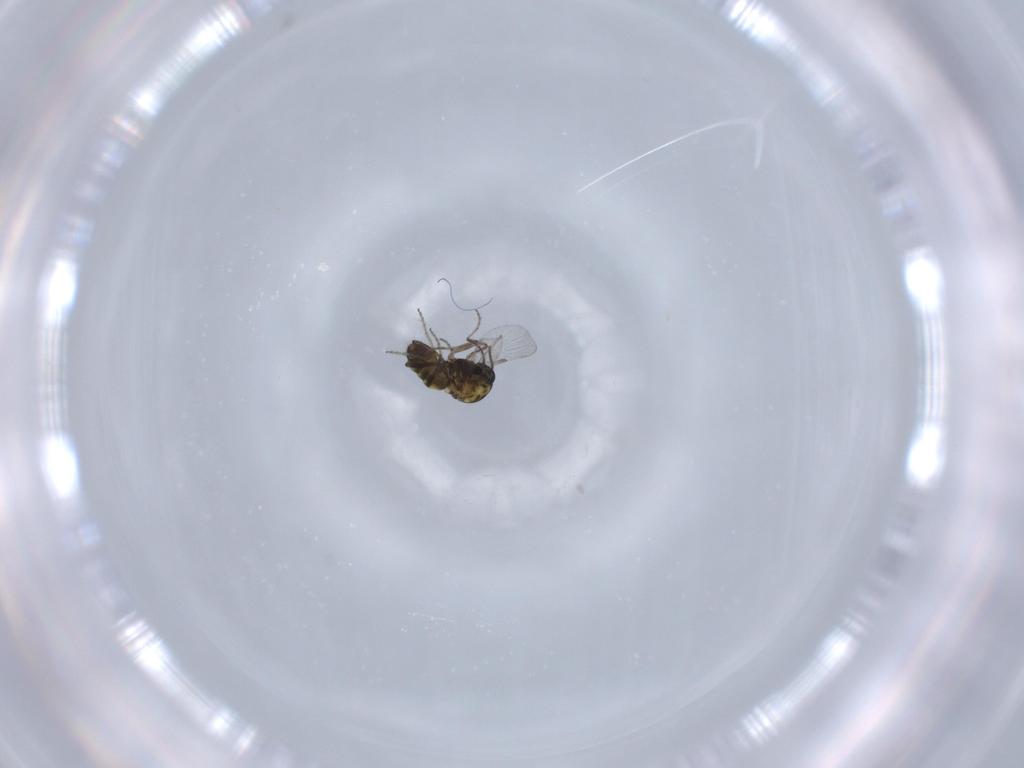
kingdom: Animalia
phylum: Arthropoda
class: Insecta
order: Diptera
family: Ceratopogonidae
